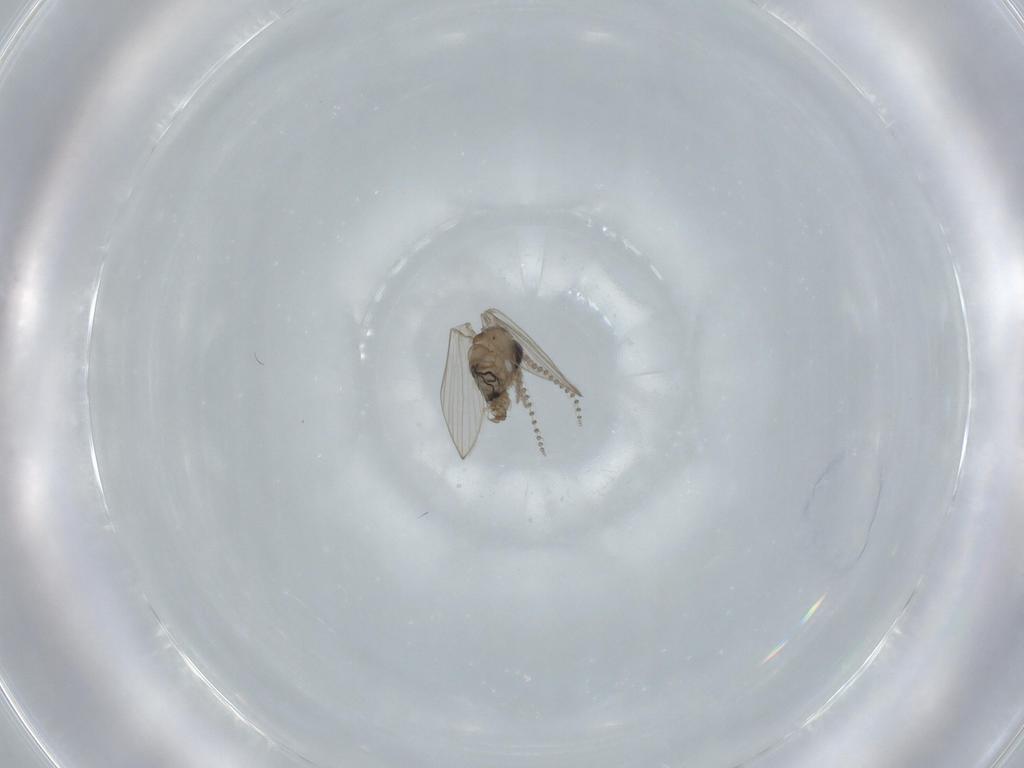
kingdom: Animalia
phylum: Arthropoda
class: Insecta
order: Diptera
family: Psychodidae
